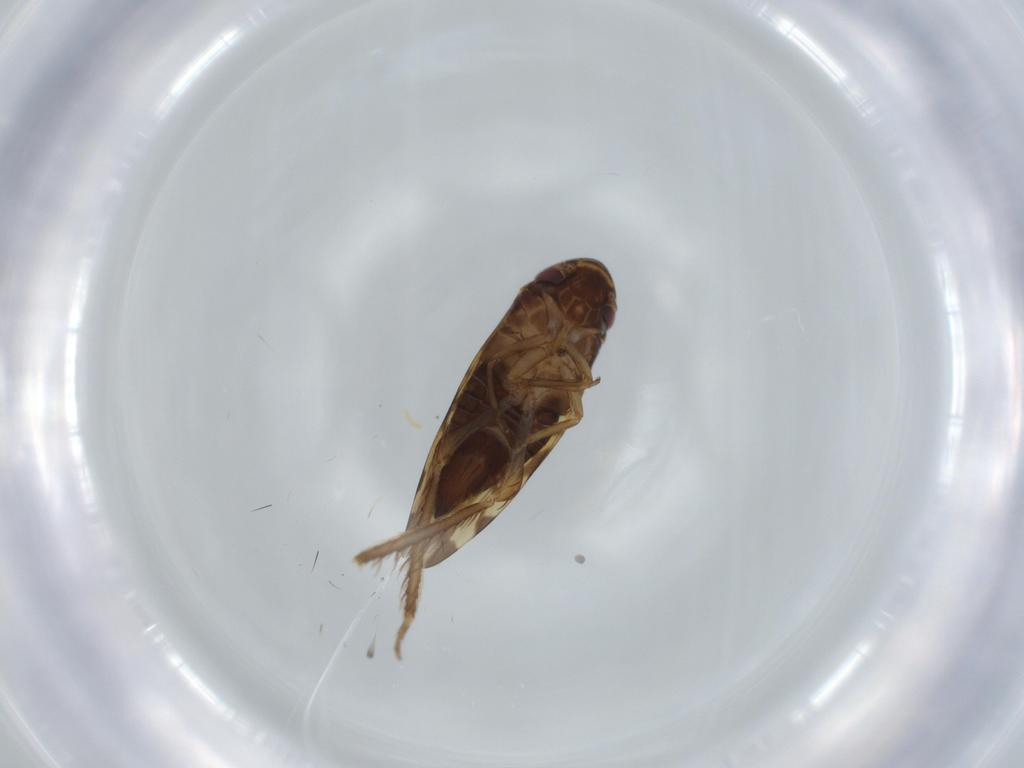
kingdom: Animalia
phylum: Arthropoda
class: Insecta
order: Hemiptera
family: Cicadellidae
